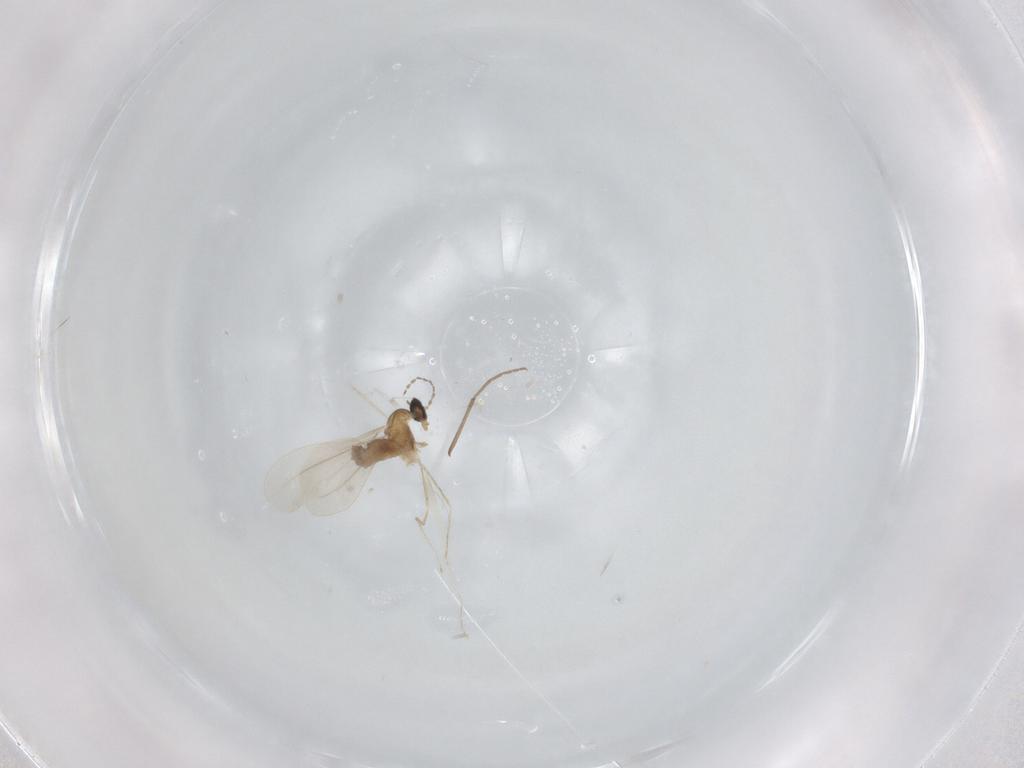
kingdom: Animalia
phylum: Arthropoda
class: Insecta
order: Diptera
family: Cecidomyiidae
